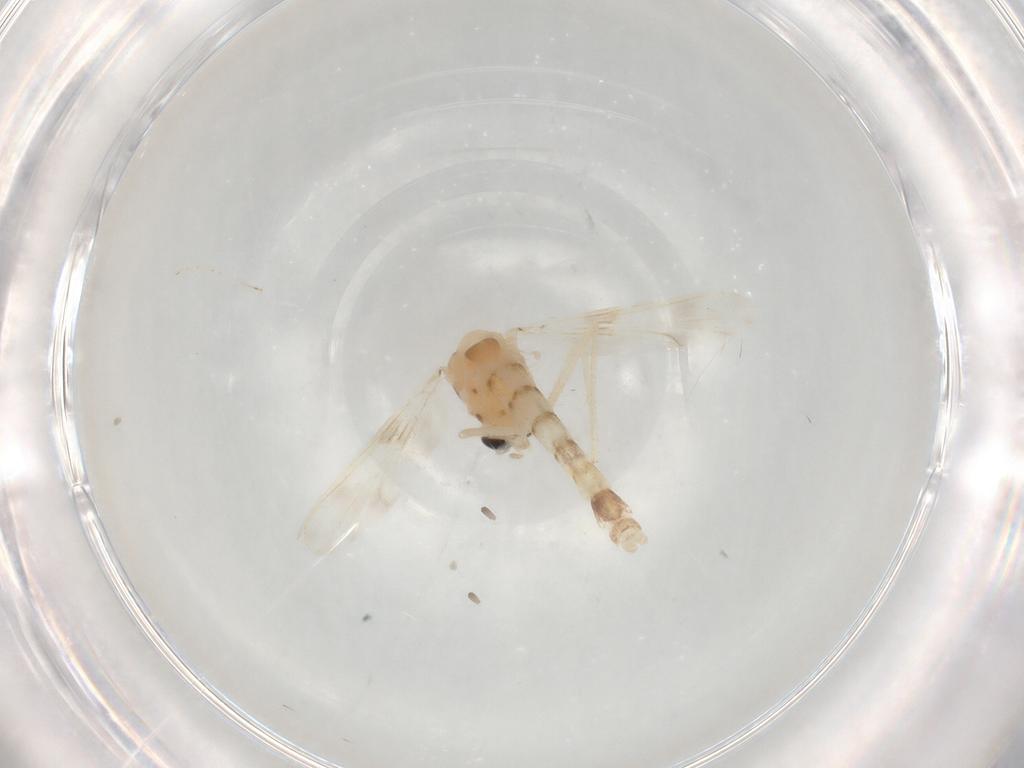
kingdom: Animalia
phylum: Arthropoda
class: Insecta
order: Diptera
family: Chironomidae
